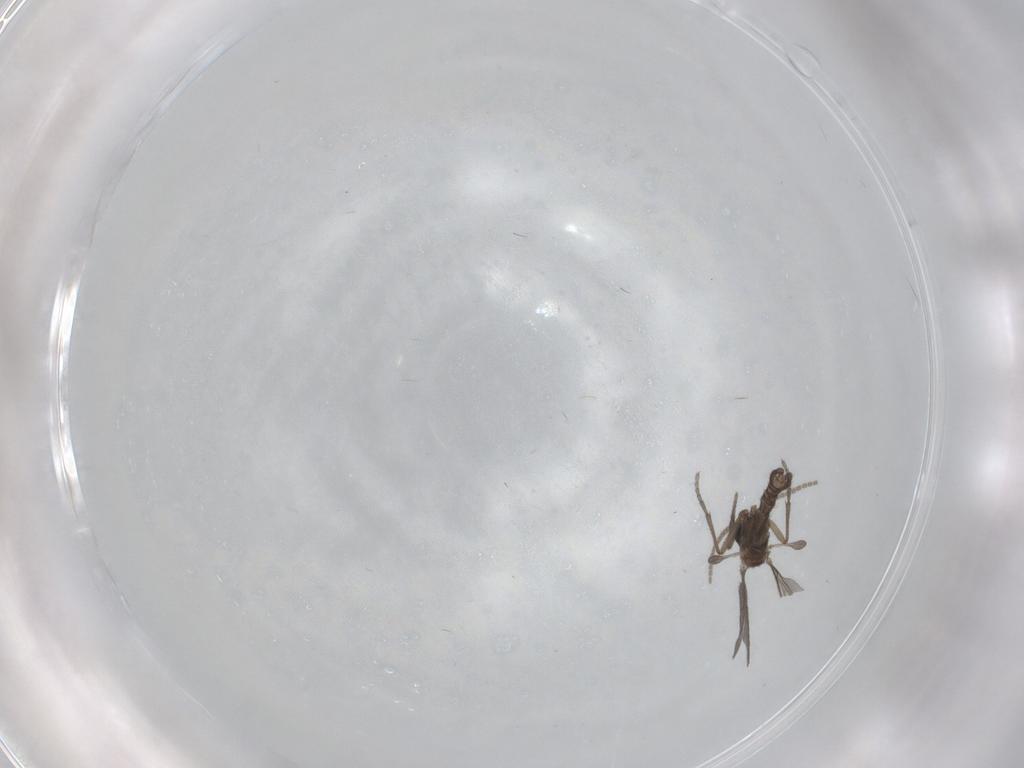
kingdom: Animalia
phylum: Arthropoda
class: Insecta
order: Diptera
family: Sciaridae
